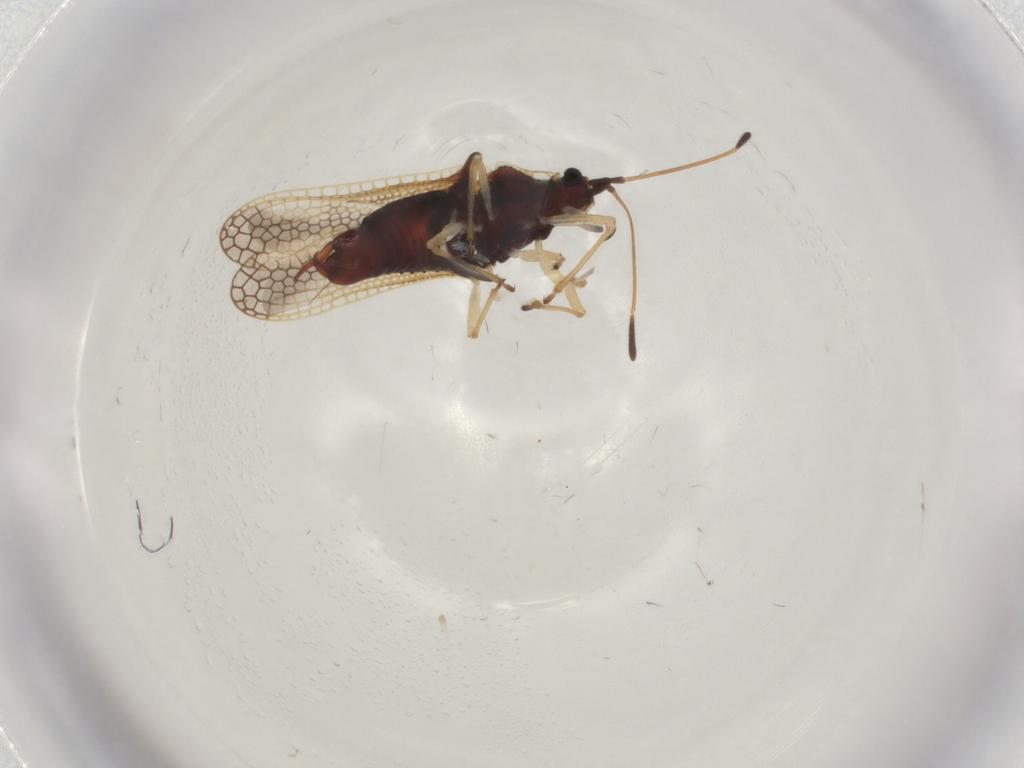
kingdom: Animalia
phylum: Arthropoda
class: Insecta
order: Hemiptera
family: Tingidae
